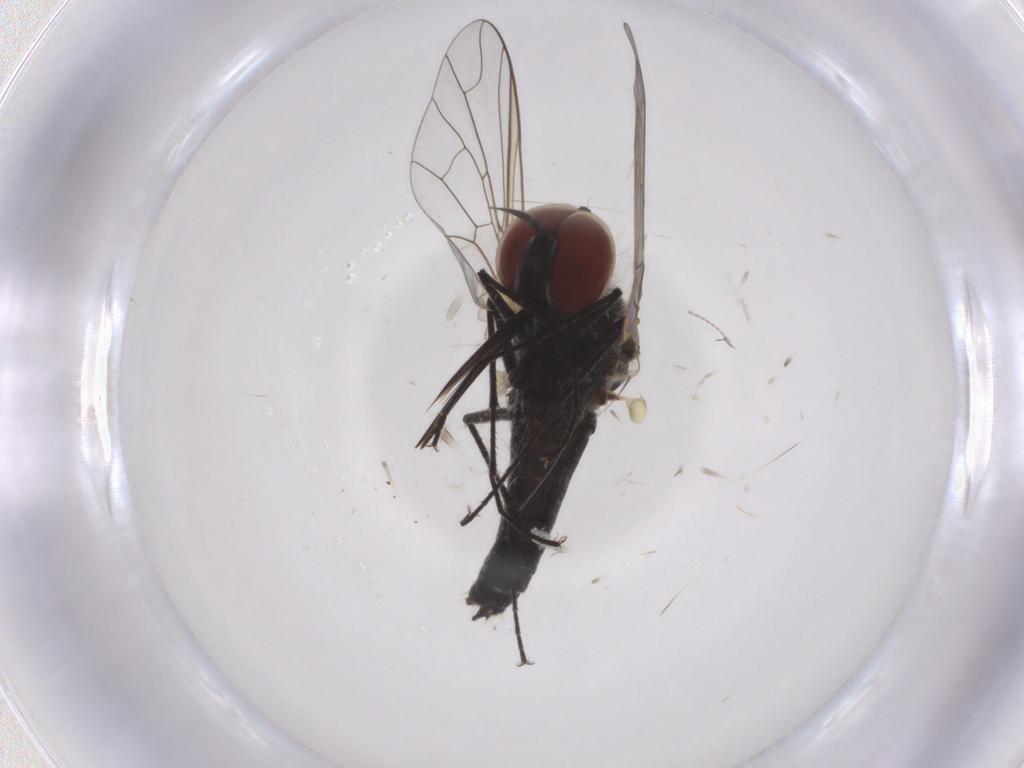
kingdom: Animalia
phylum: Arthropoda
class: Insecta
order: Diptera
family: Bombyliidae
